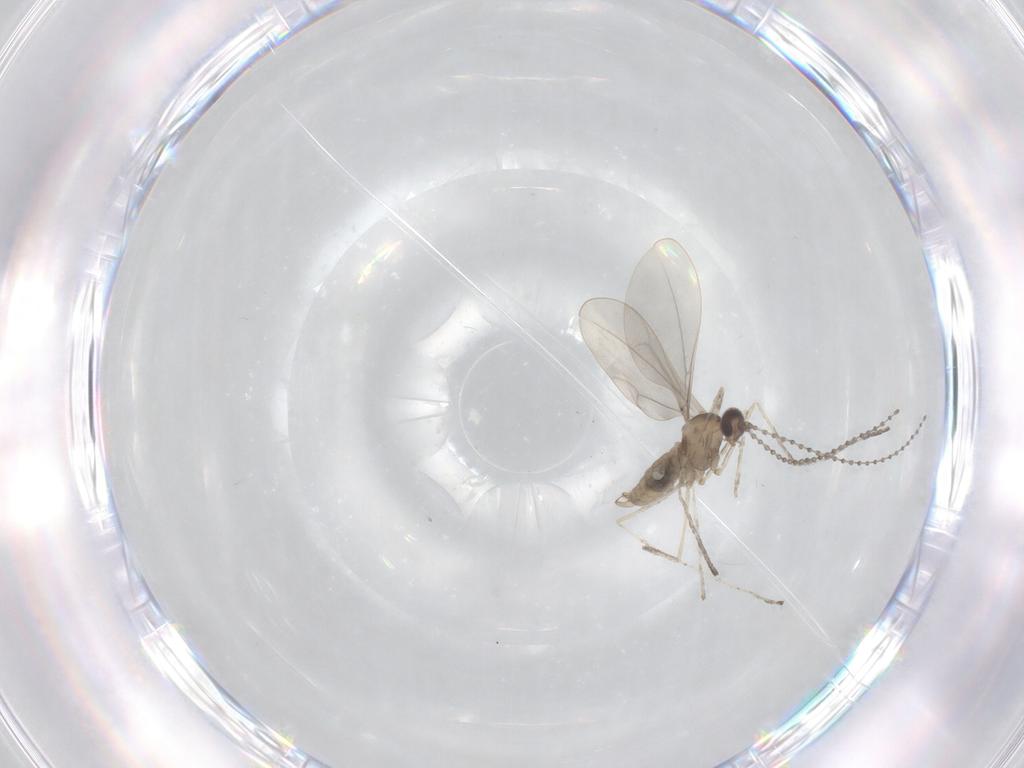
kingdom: Animalia
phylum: Arthropoda
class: Insecta
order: Diptera
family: Cecidomyiidae
